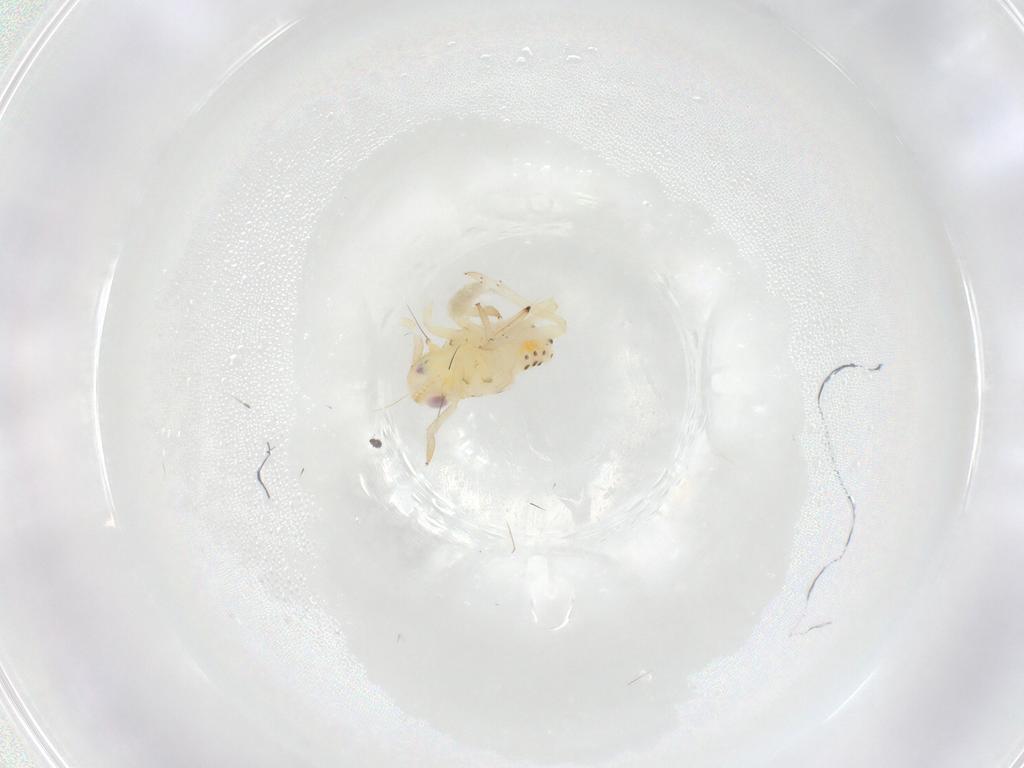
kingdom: Animalia
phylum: Arthropoda
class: Insecta
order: Hemiptera
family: Tropiduchidae
